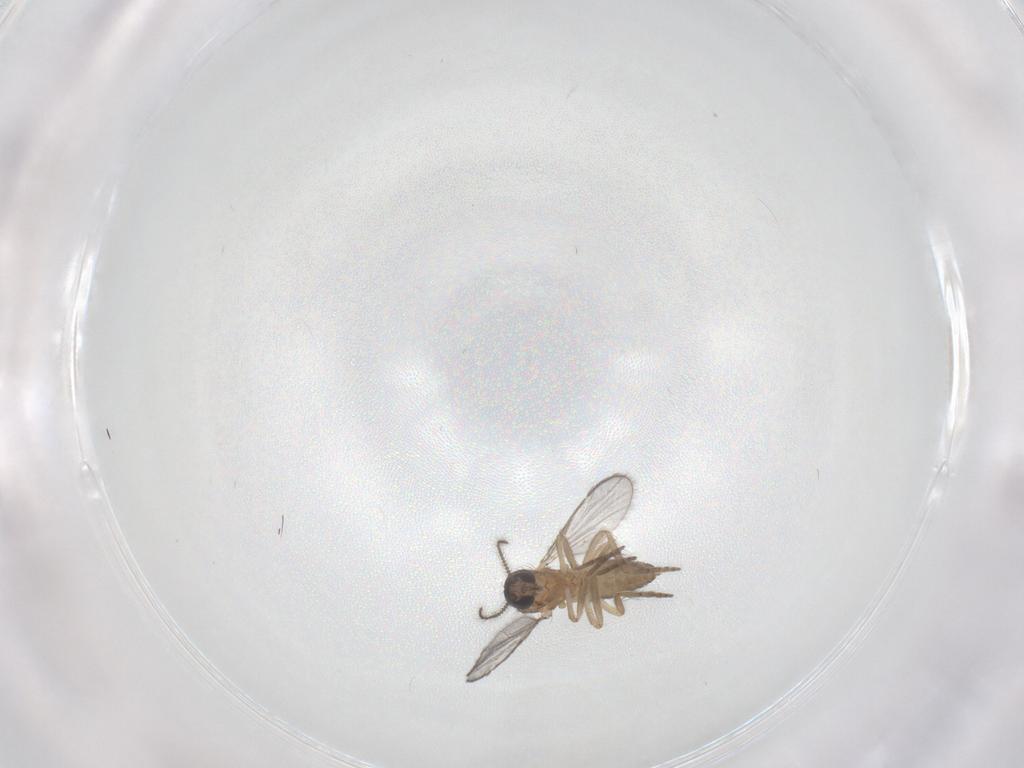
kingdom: Animalia
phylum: Arthropoda
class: Insecta
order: Diptera
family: Ceratopogonidae
